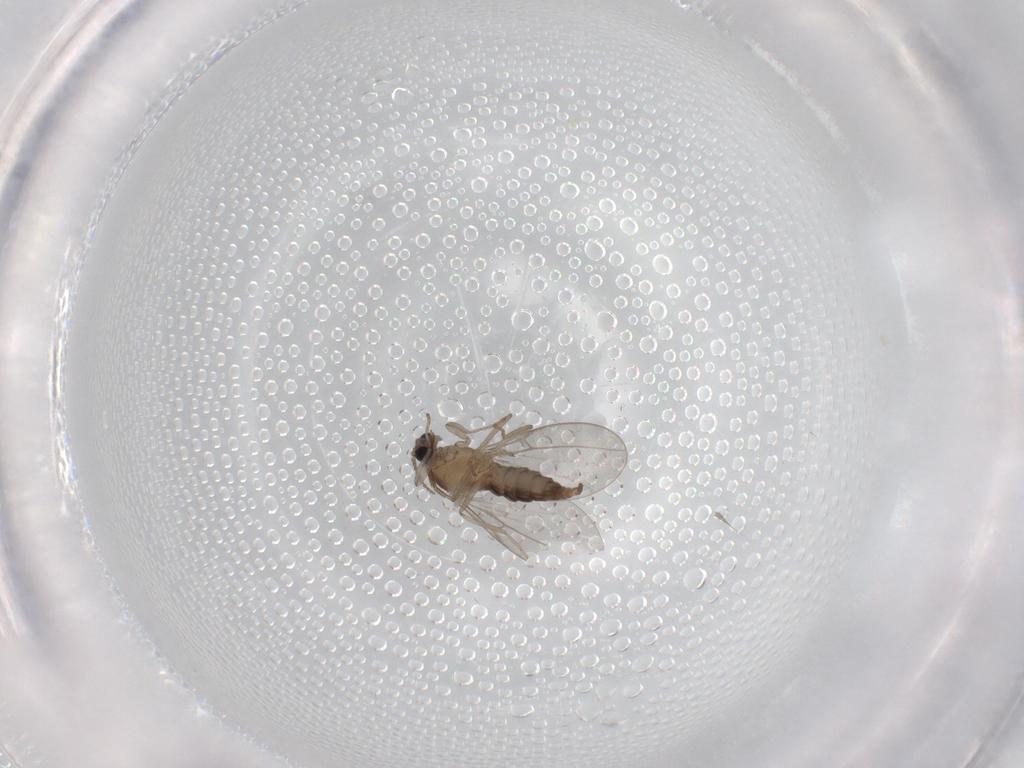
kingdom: Animalia
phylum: Arthropoda
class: Insecta
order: Diptera
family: Cecidomyiidae
